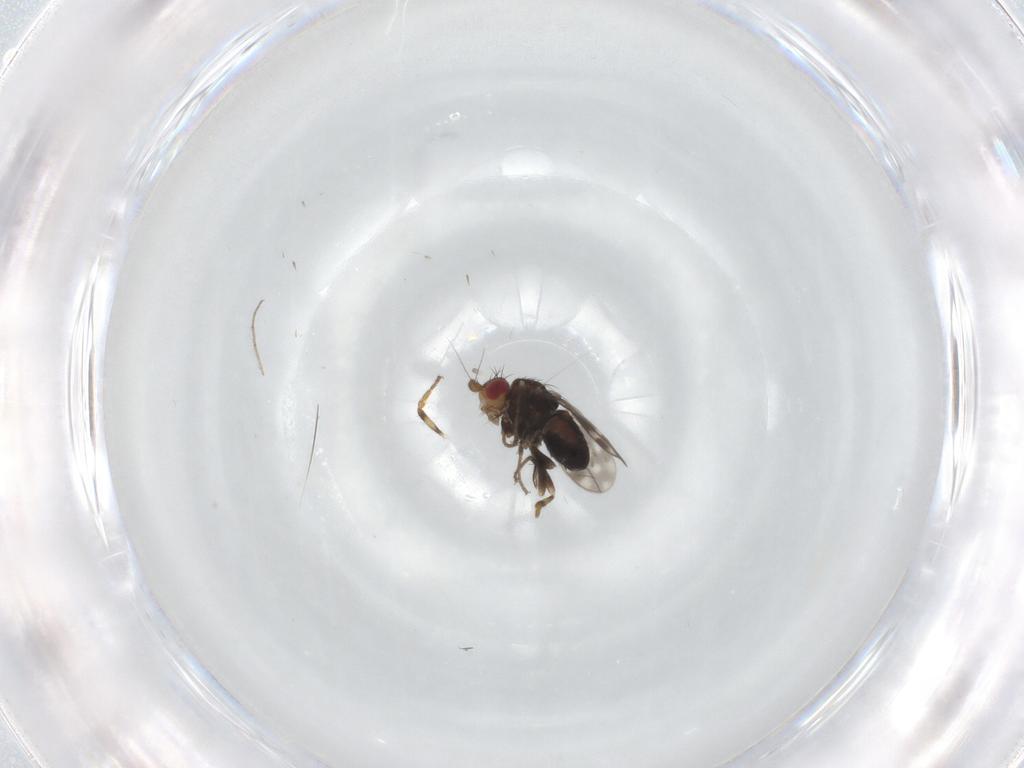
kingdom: Animalia
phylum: Arthropoda
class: Insecta
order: Diptera
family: Sphaeroceridae
